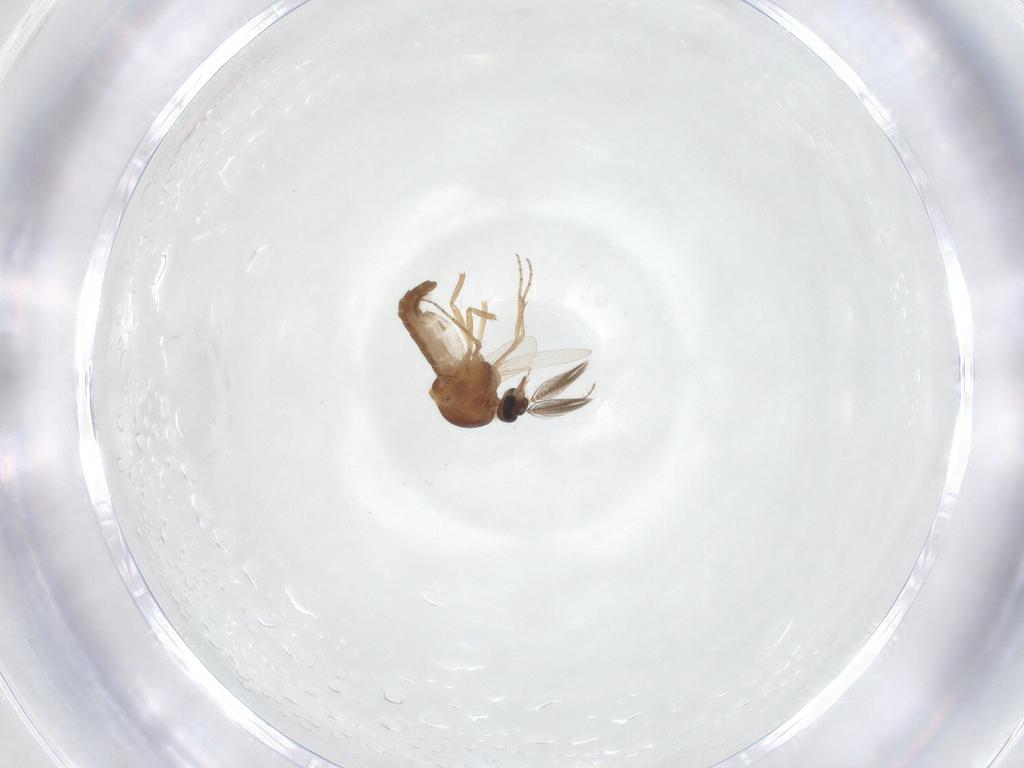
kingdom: Animalia
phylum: Arthropoda
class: Insecta
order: Diptera
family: Ceratopogonidae
